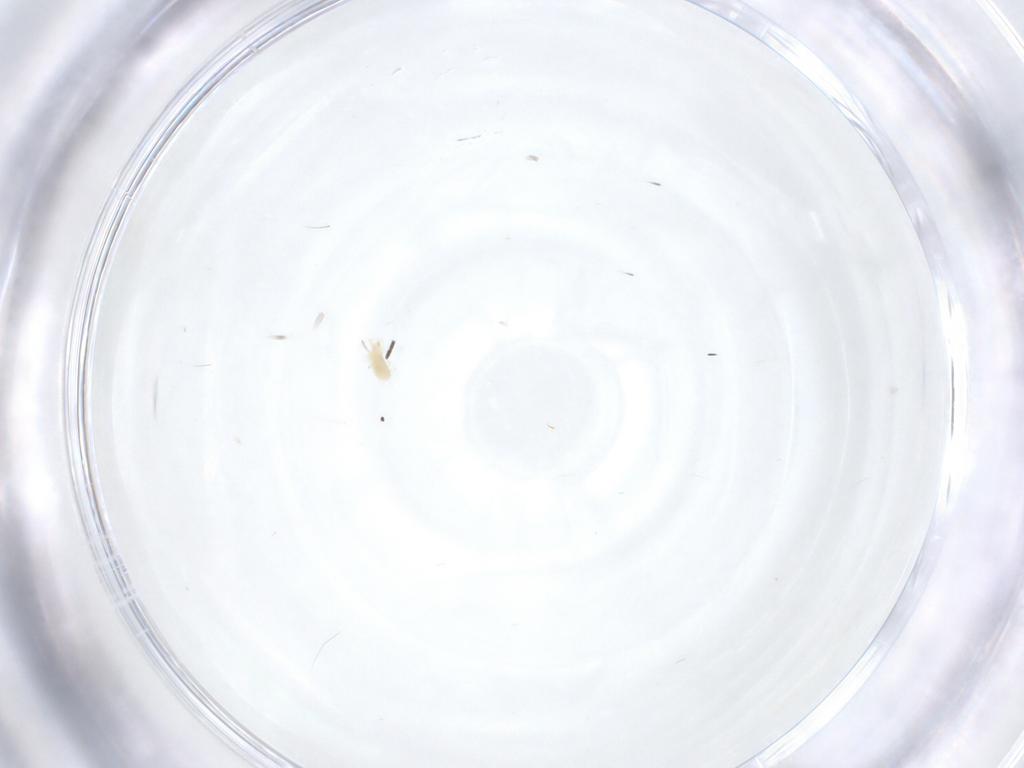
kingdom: Animalia
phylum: Arthropoda
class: Arachnida
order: Trombidiformes
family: Tetranychidae
